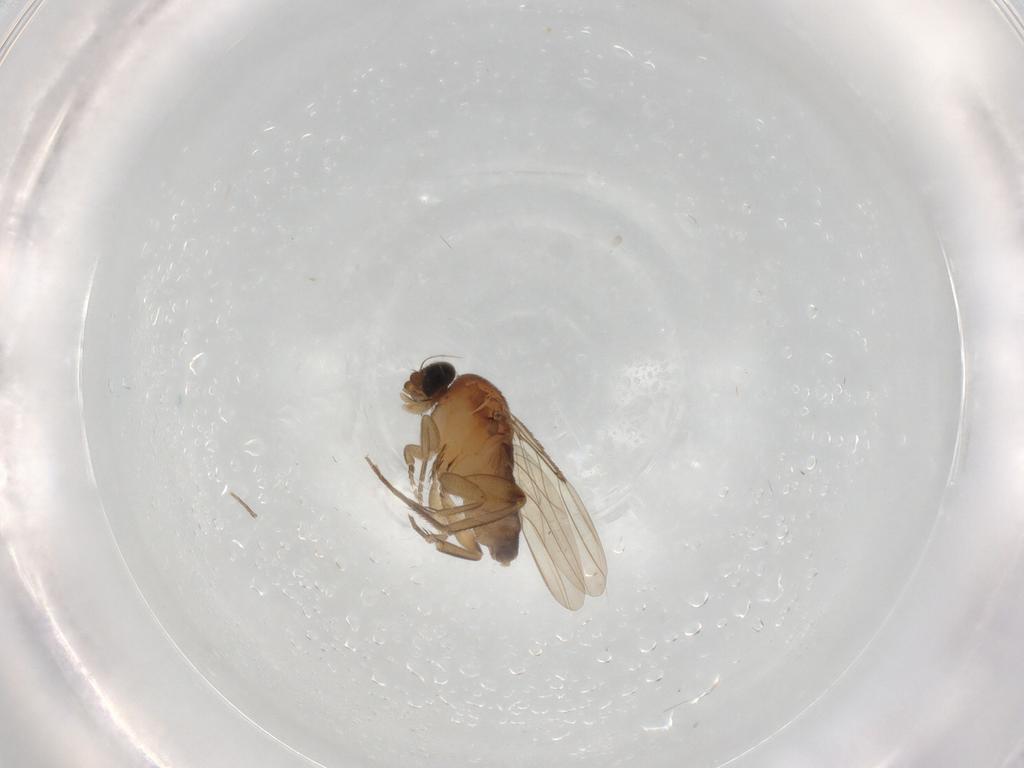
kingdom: Animalia
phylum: Arthropoda
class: Insecta
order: Diptera
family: Phoridae
